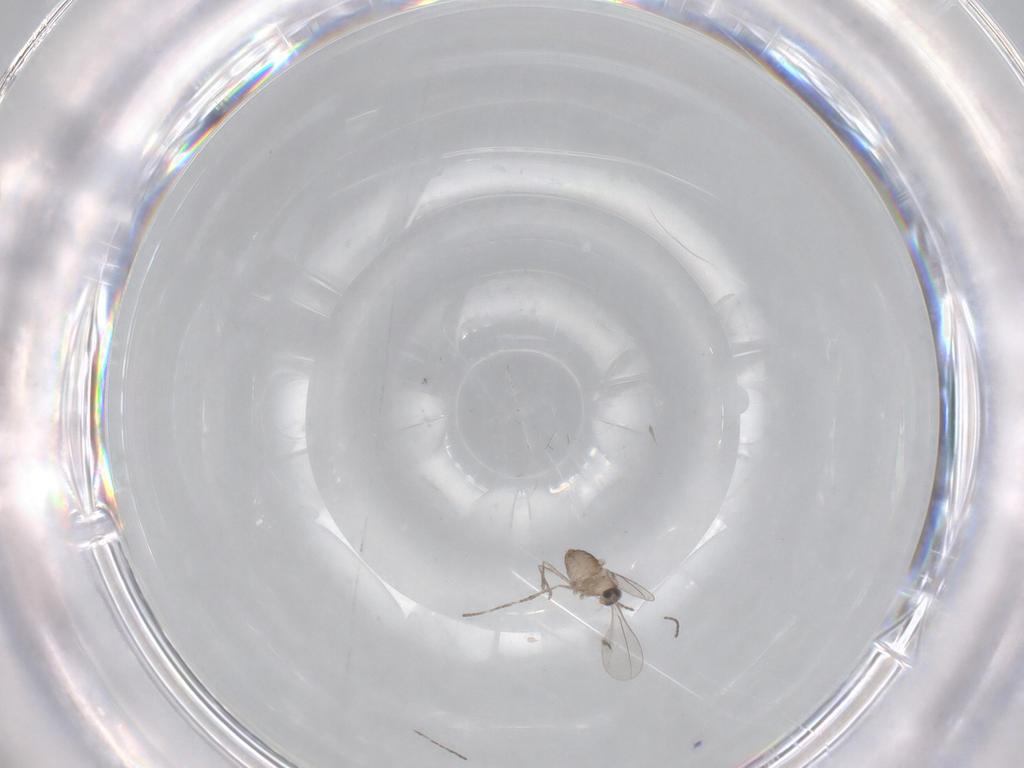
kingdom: Animalia
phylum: Arthropoda
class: Insecta
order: Diptera
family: Cecidomyiidae
